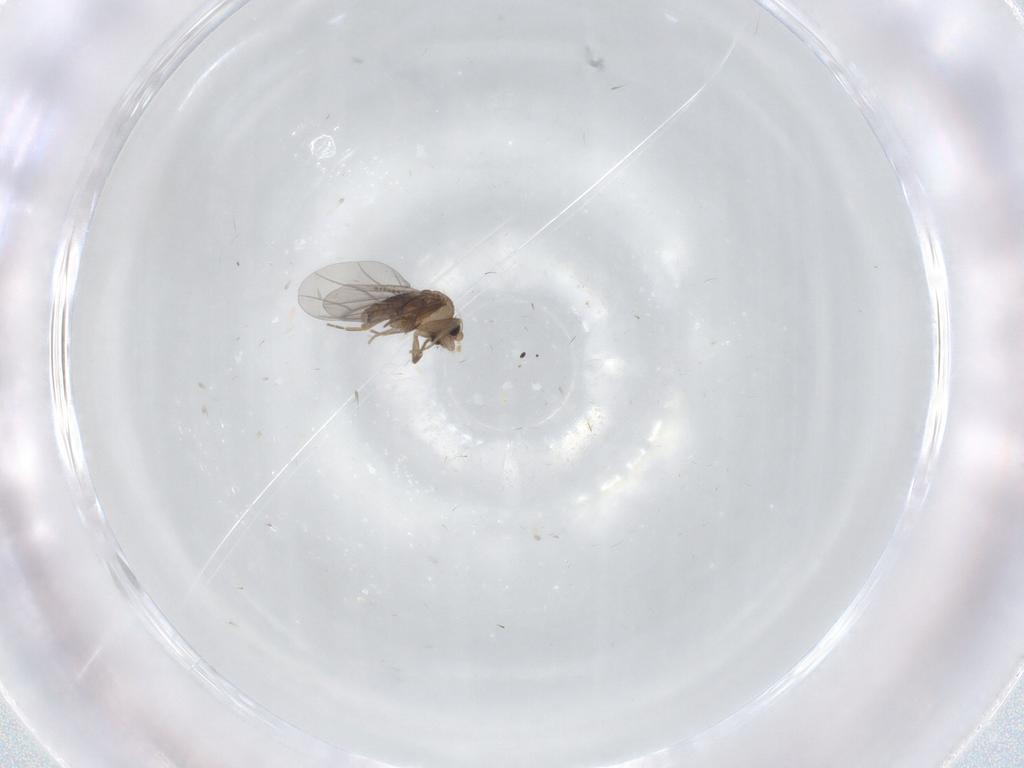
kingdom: Animalia
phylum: Arthropoda
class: Insecta
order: Diptera
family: Cecidomyiidae
